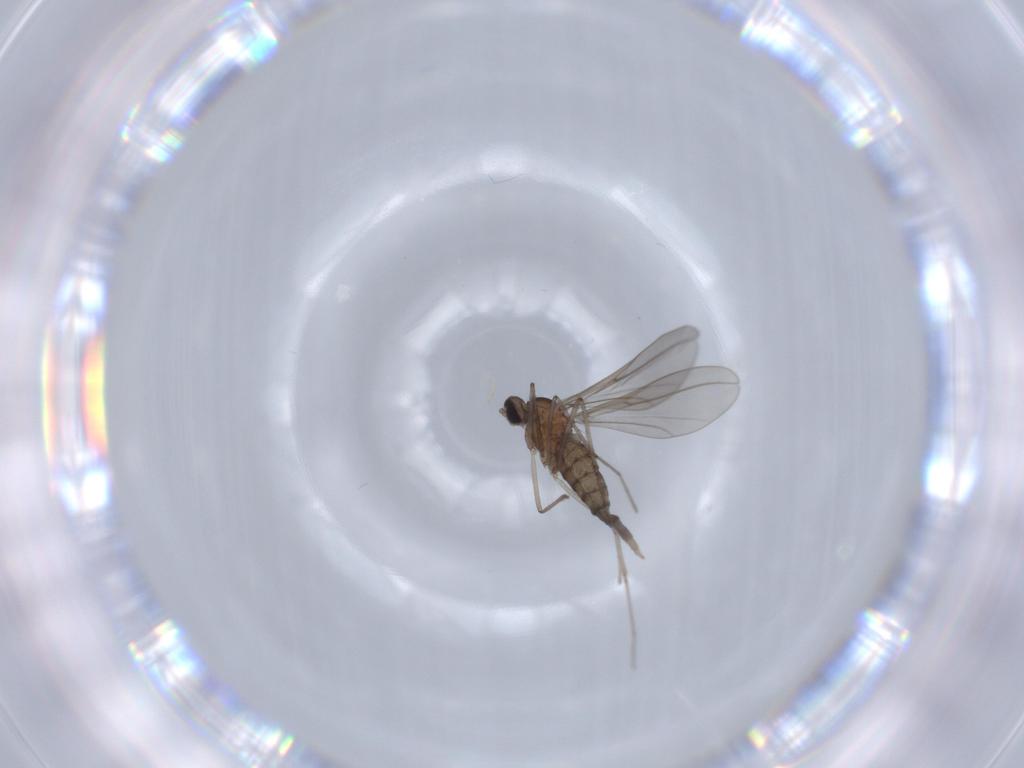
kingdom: Animalia
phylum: Arthropoda
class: Insecta
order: Diptera
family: Cecidomyiidae
